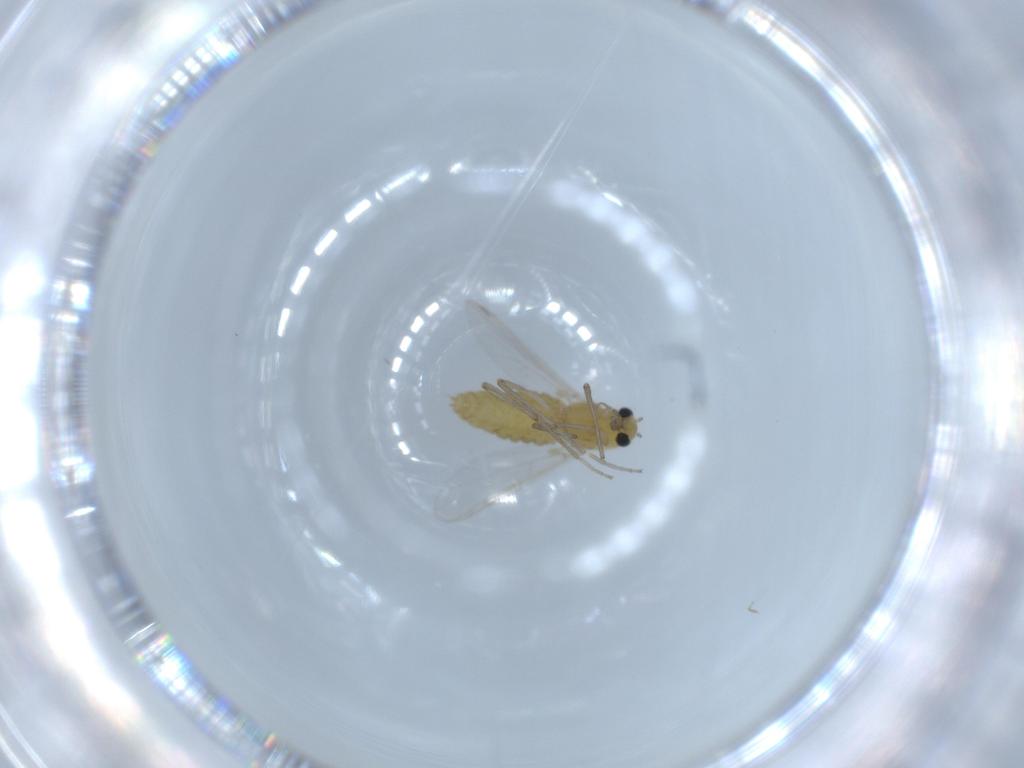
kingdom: Animalia
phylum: Arthropoda
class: Insecta
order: Diptera
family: Chironomidae
